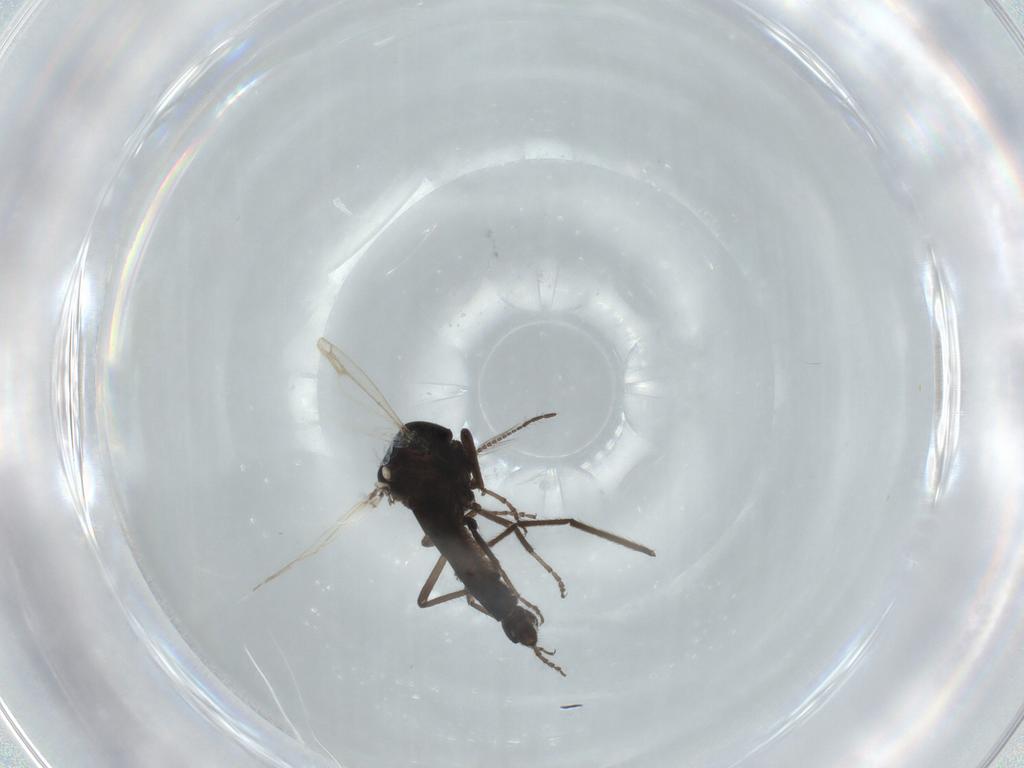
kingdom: Animalia
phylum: Arthropoda
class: Insecta
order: Diptera
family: Ceratopogonidae
